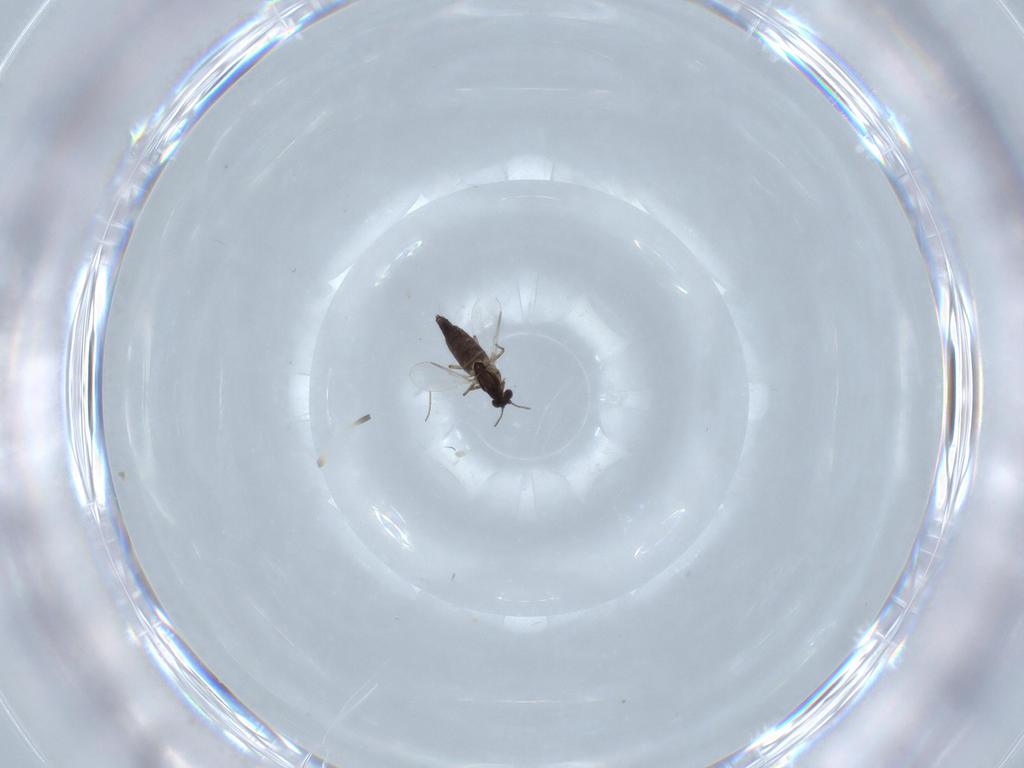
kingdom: Animalia
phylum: Arthropoda
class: Insecta
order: Diptera
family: Chironomidae
